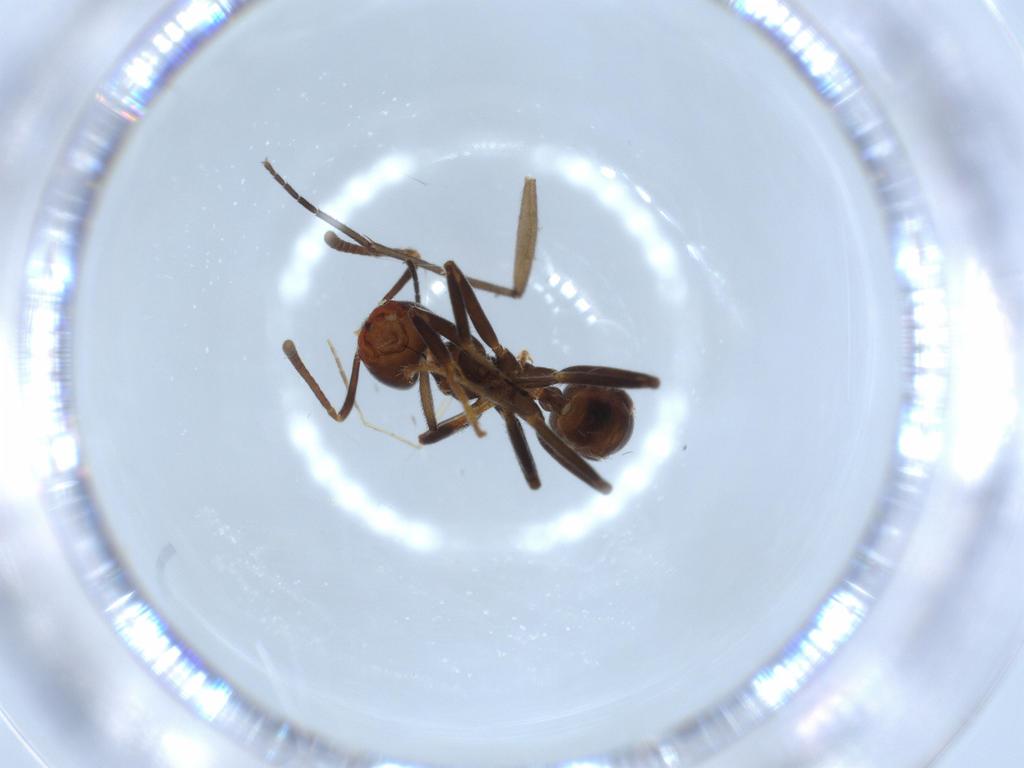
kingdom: Animalia
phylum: Arthropoda
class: Insecta
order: Hymenoptera
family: Formicidae
